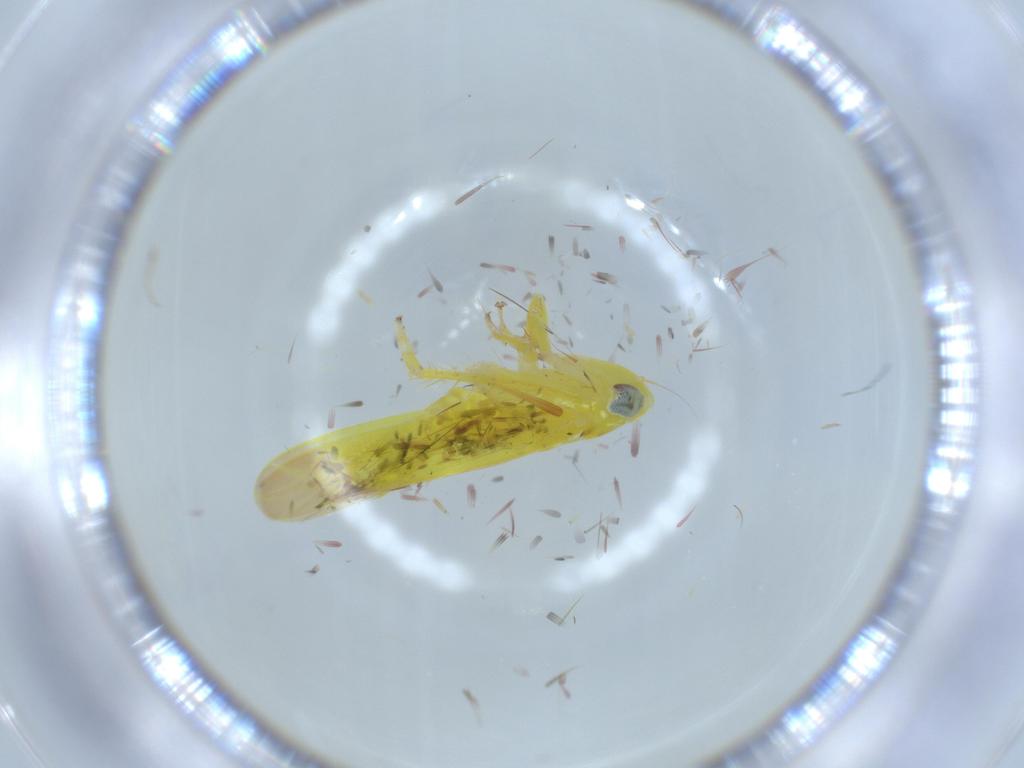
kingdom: Animalia
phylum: Arthropoda
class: Insecta
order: Hemiptera
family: Cicadellidae
